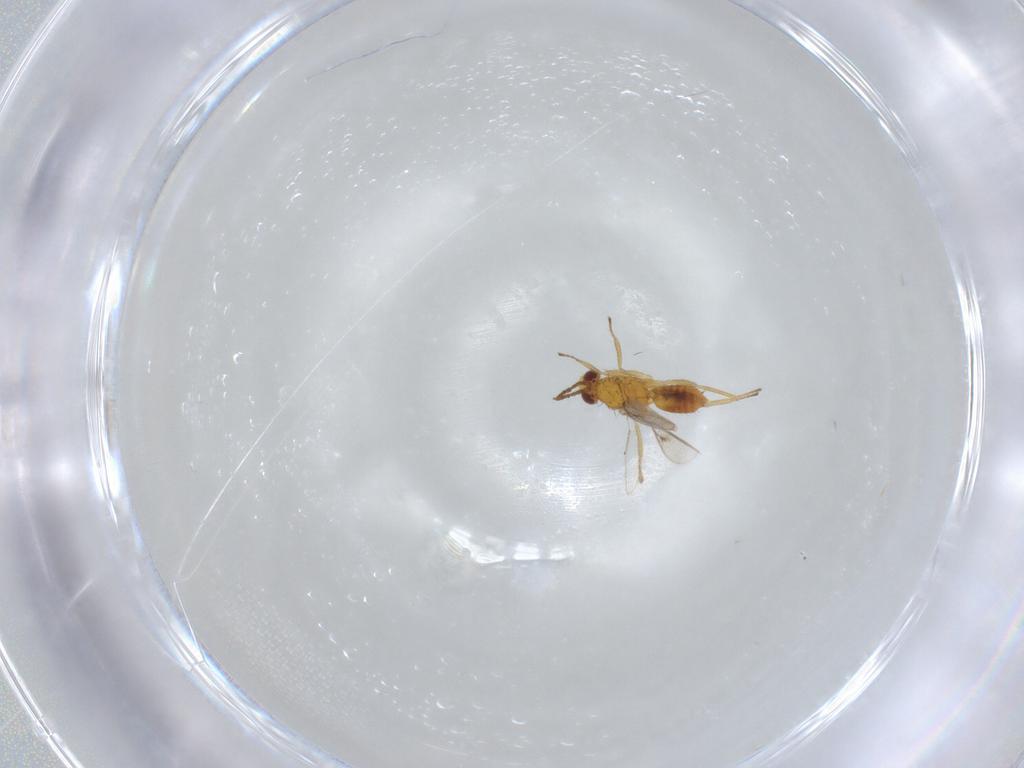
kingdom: Animalia
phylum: Arthropoda
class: Insecta
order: Hymenoptera
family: Eulophidae
